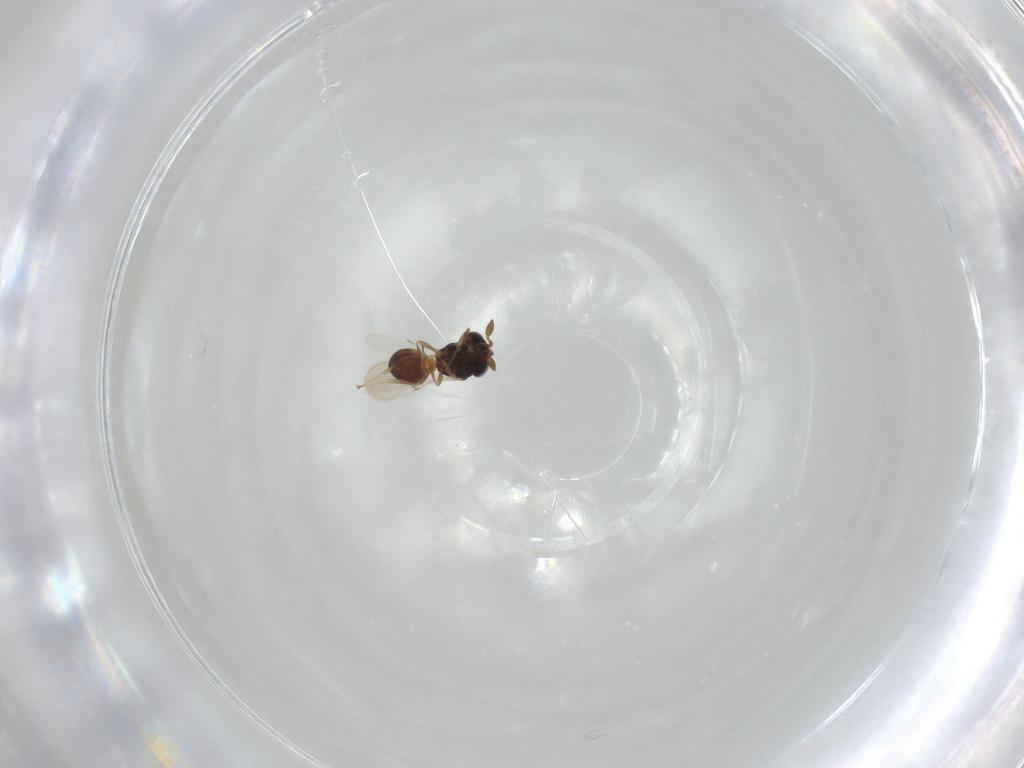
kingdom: Animalia
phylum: Arthropoda
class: Insecta
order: Hymenoptera
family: Scelionidae
